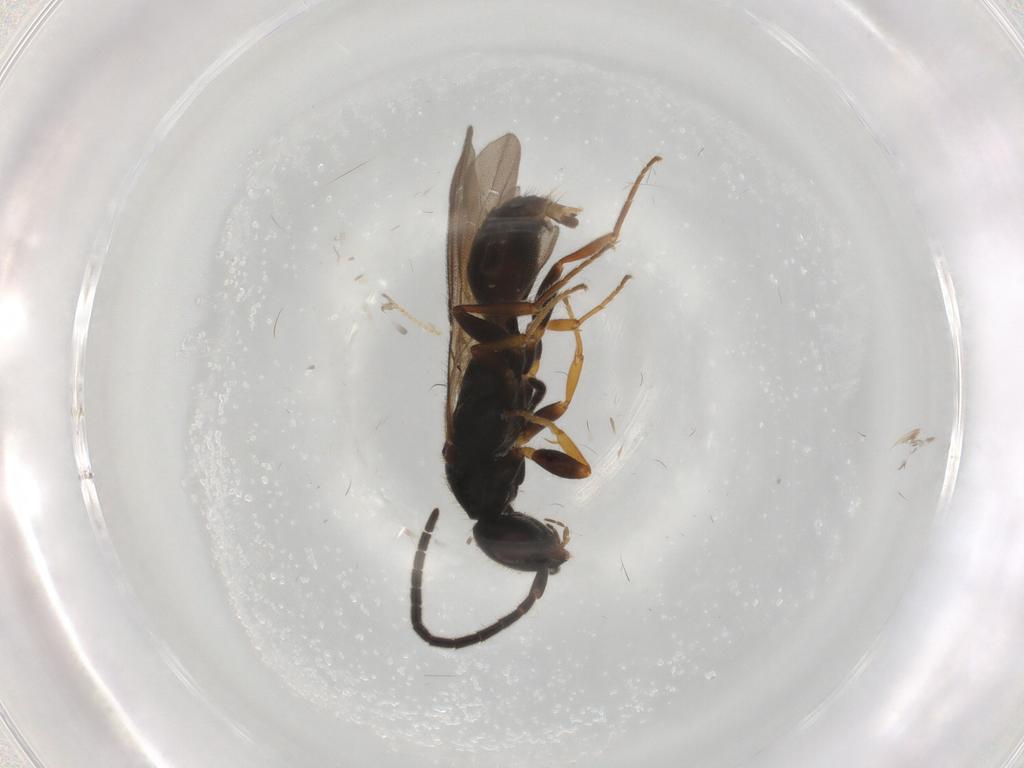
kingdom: Animalia
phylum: Arthropoda
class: Insecta
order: Hymenoptera
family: Bethylidae
